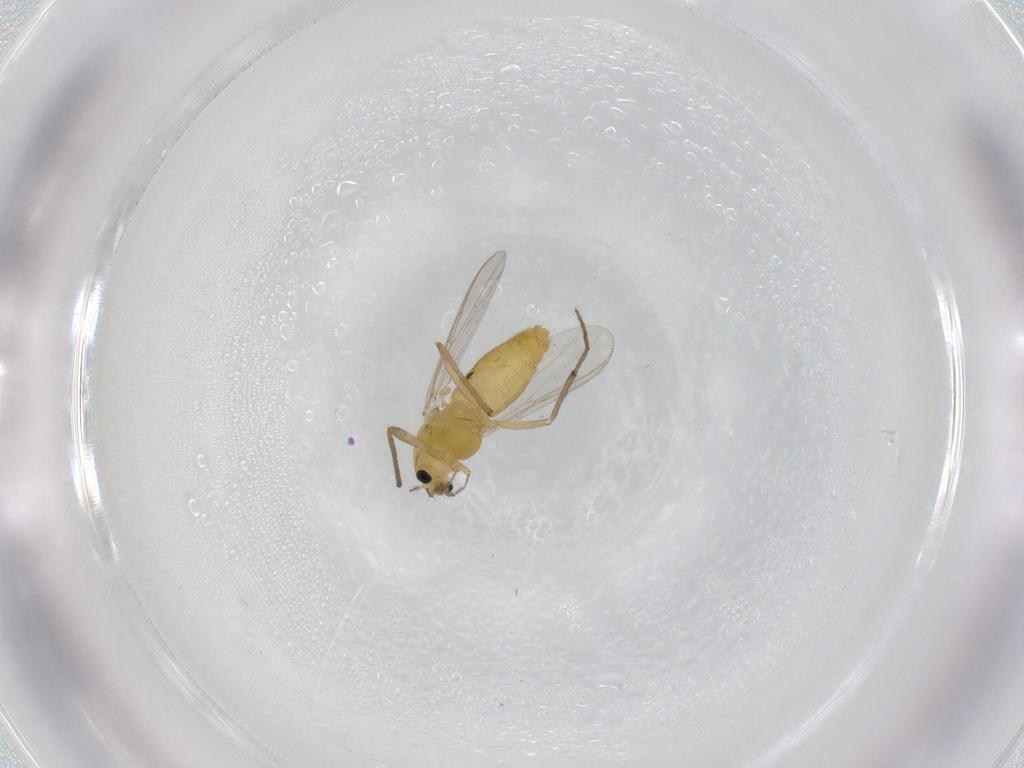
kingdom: Animalia
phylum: Arthropoda
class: Insecta
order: Diptera
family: Chironomidae
